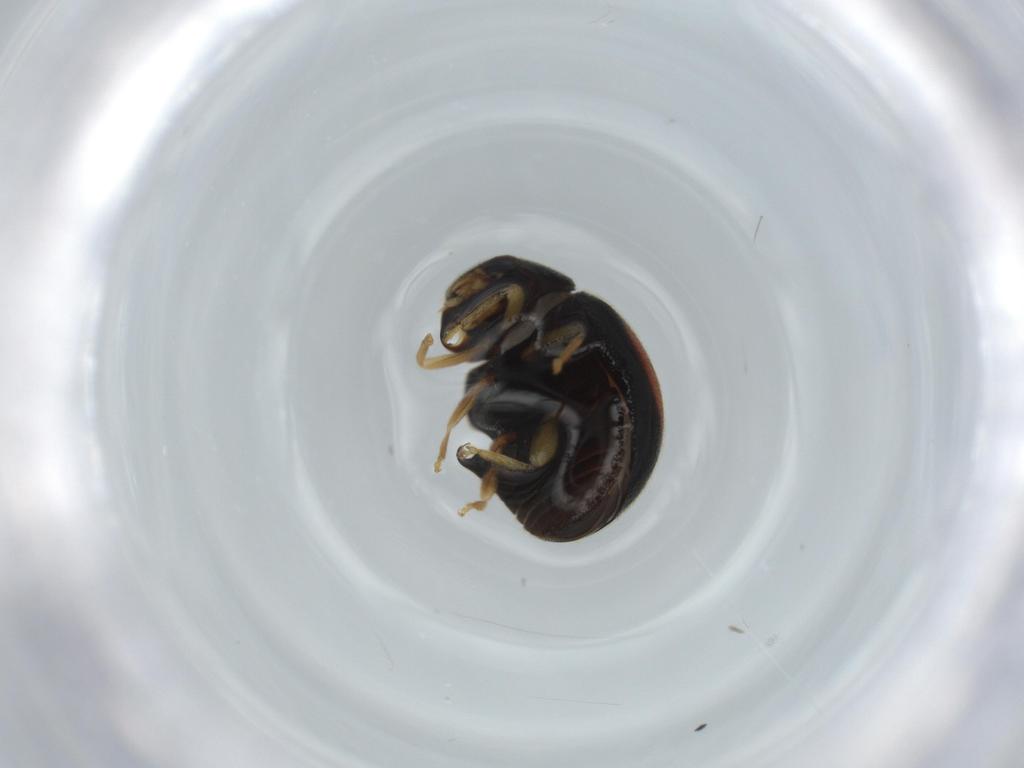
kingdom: Animalia
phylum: Arthropoda
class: Insecta
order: Coleoptera
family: Coccinellidae
